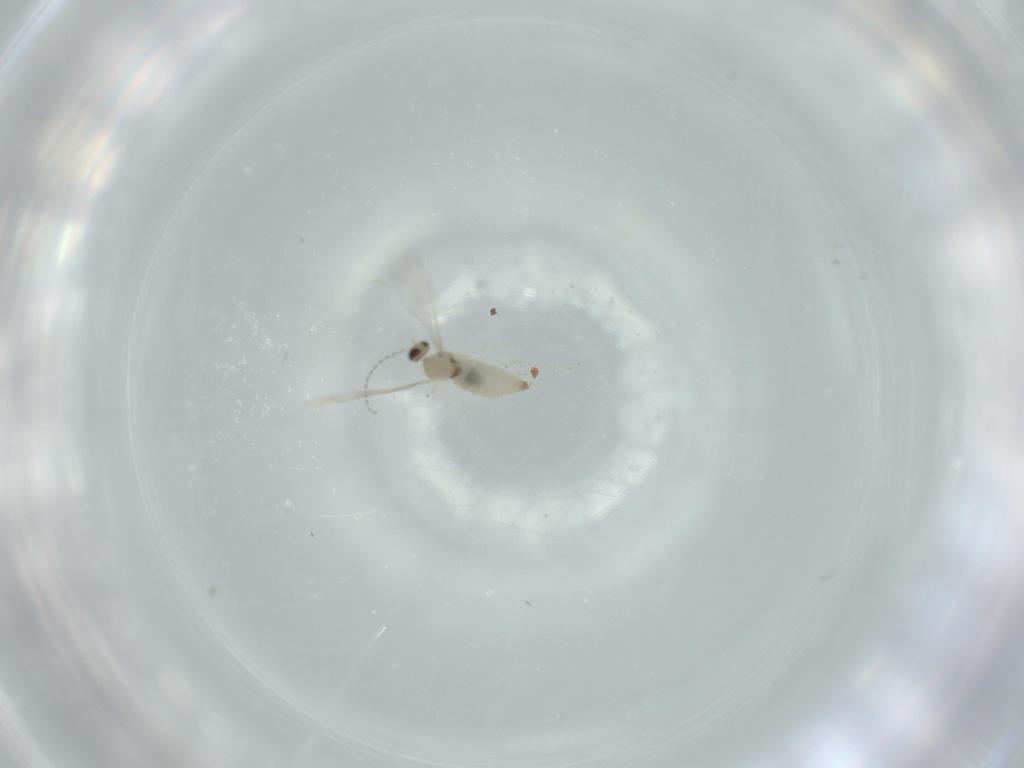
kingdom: Animalia
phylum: Arthropoda
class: Insecta
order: Diptera
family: Cecidomyiidae
